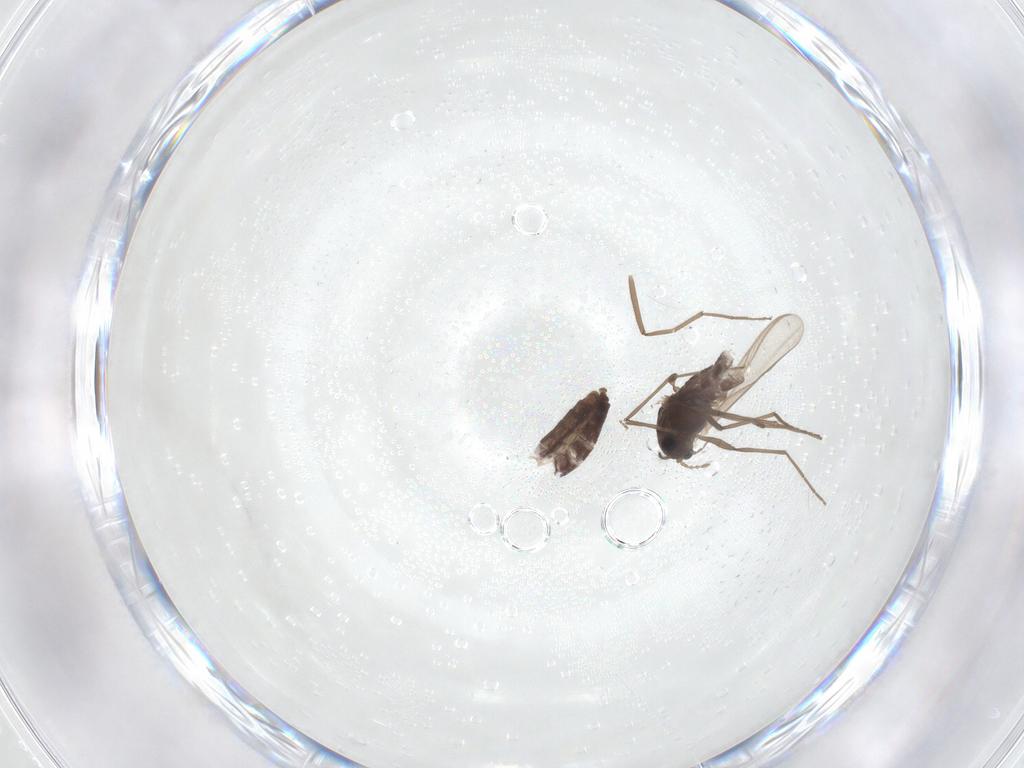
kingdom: Animalia
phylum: Arthropoda
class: Insecta
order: Diptera
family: Chironomidae
